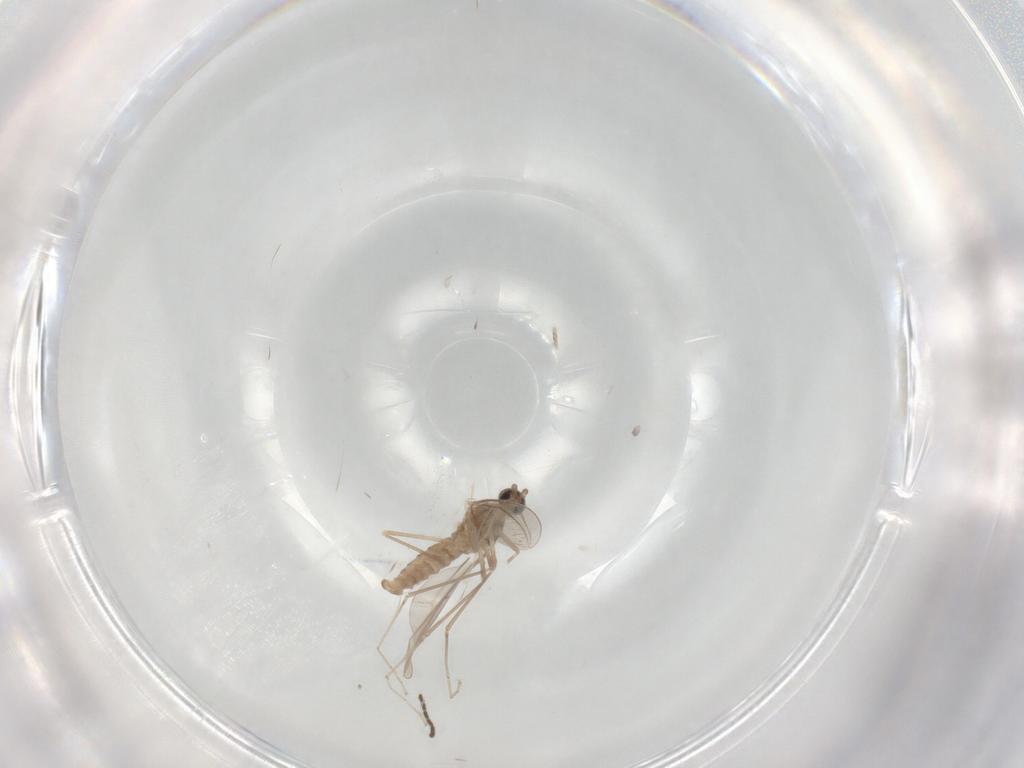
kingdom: Animalia
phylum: Arthropoda
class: Insecta
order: Diptera
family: Cecidomyiidae
